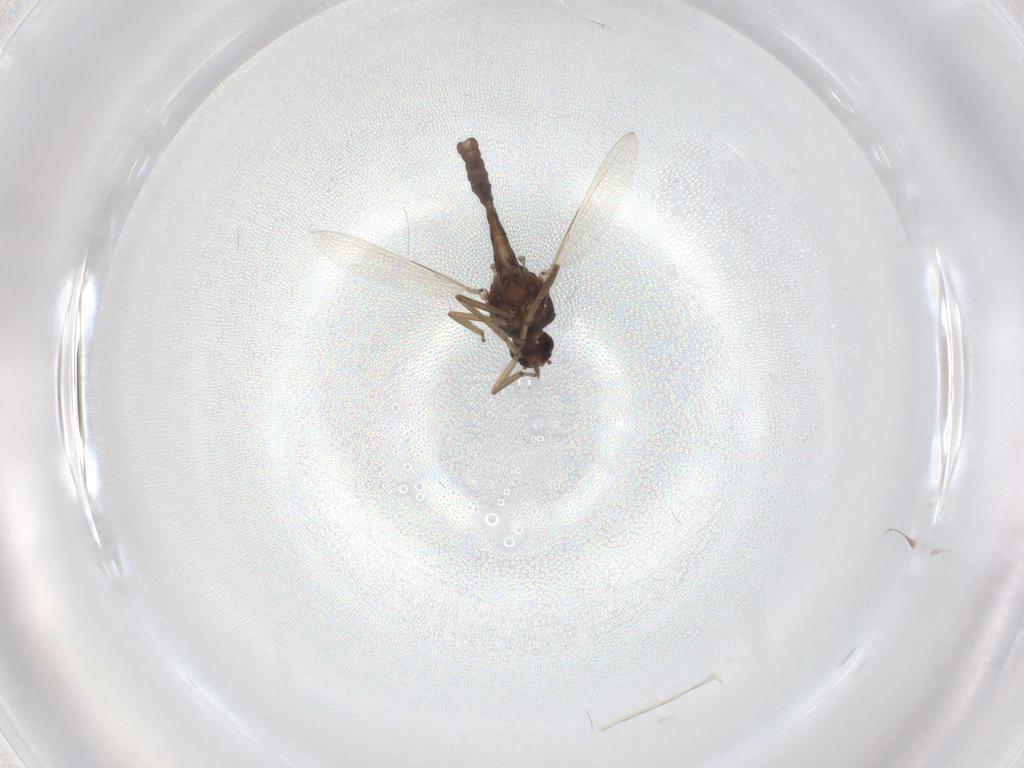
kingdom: Animalia
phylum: Arthropoda
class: Insecta
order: Diptera
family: Ceratopogonidae
